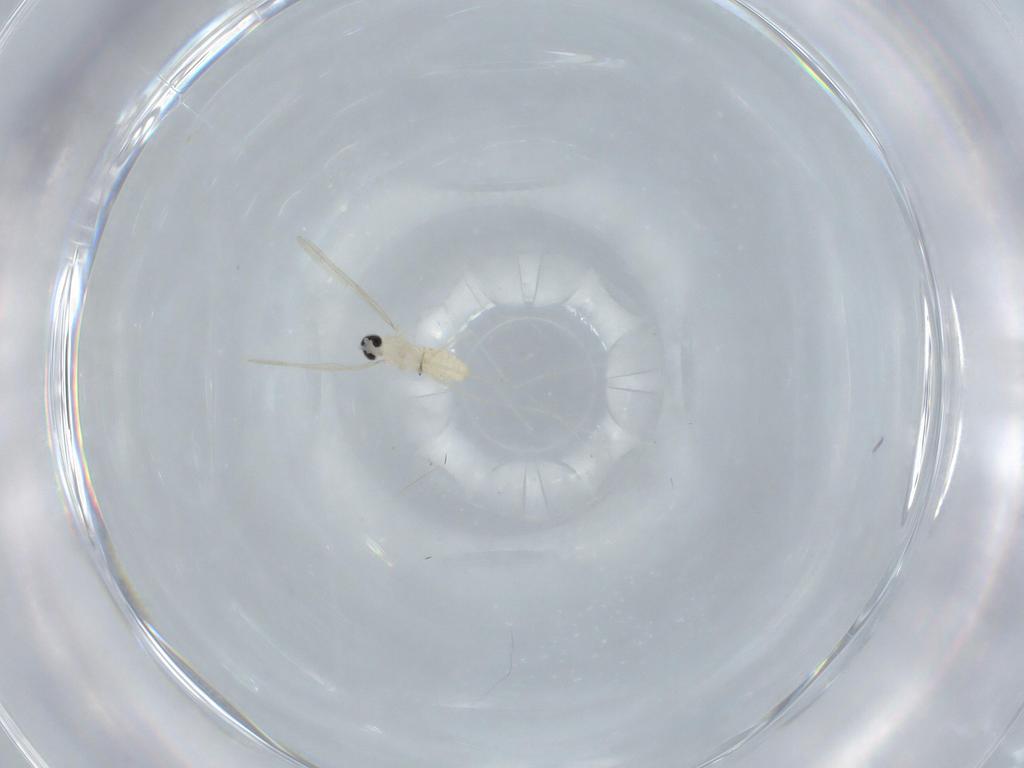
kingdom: Animalia
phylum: Arthropoda
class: Insecta
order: Diptera
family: Cecidomyiidae
